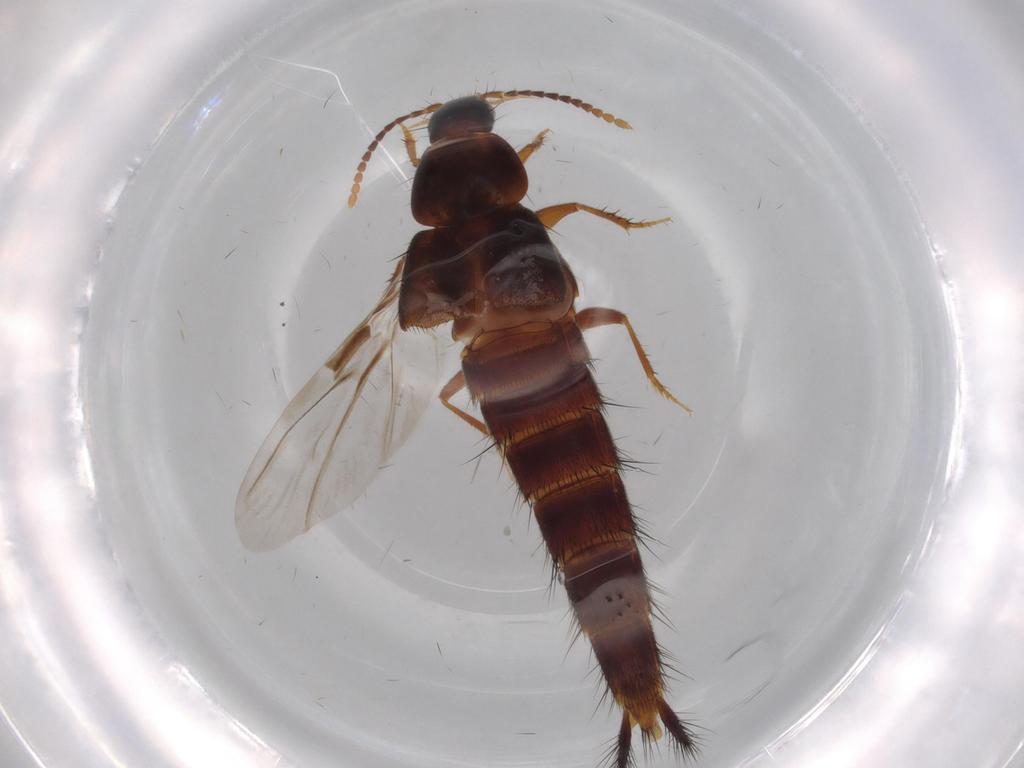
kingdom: Animalia
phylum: Arthropoda
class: Insecta
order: Coleoptera
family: Staphylinidae
